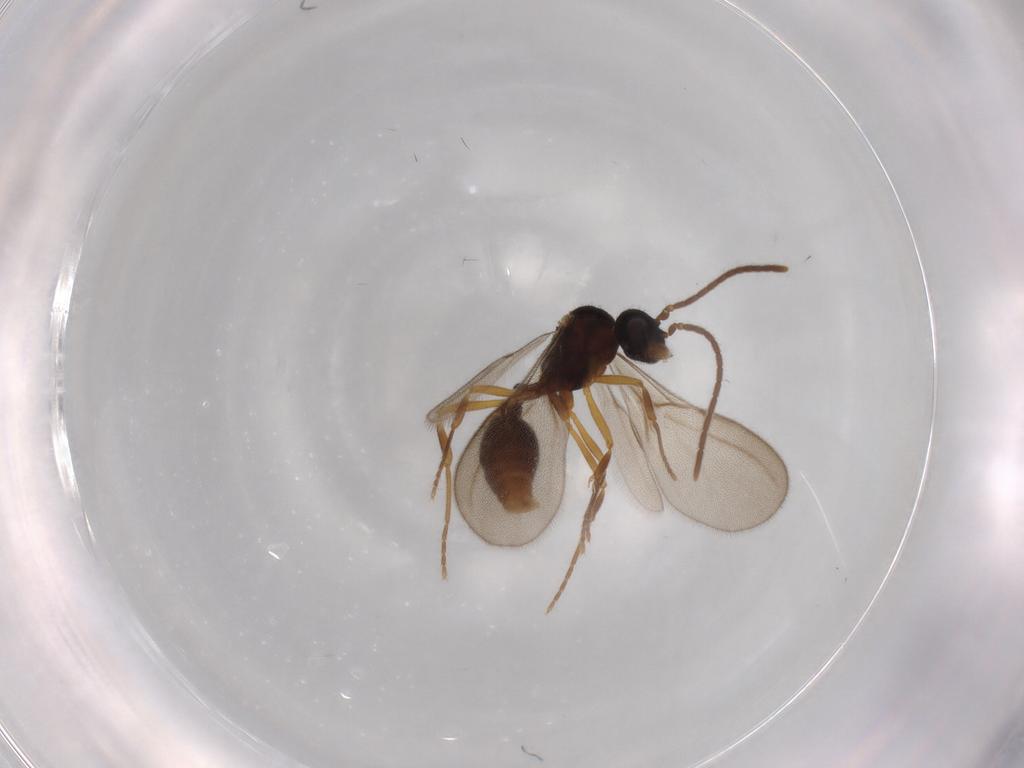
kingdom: Animalia
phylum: Arthropoda
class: Insecta
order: Hymenoptera
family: Formicidae
